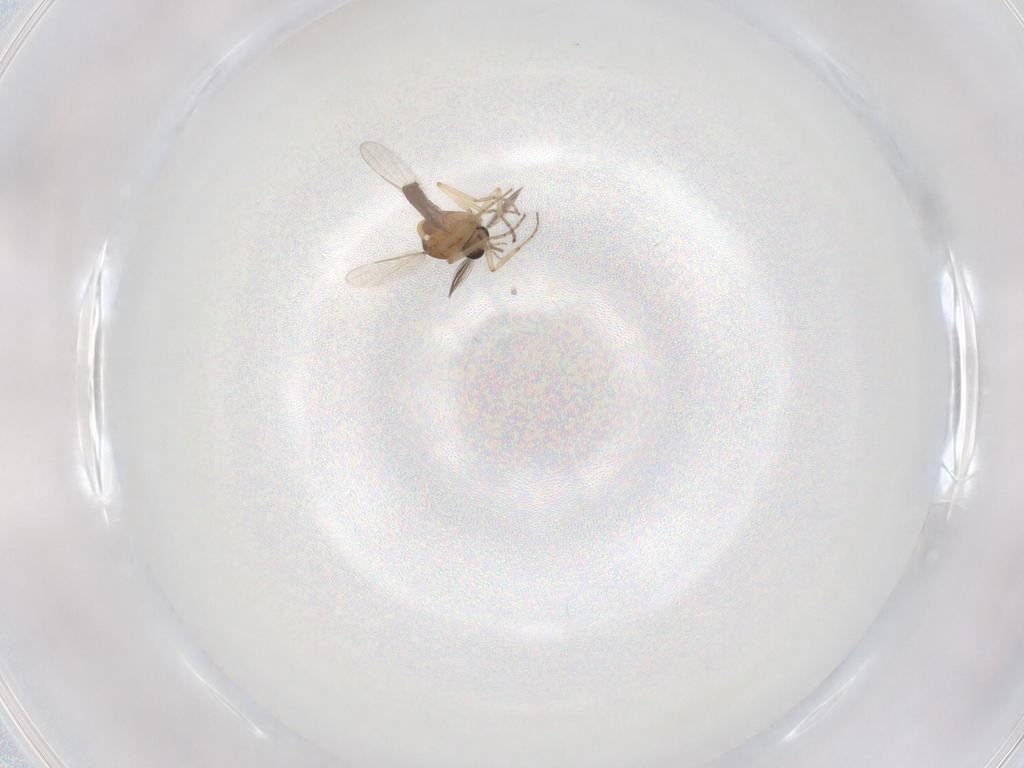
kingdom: Animalia
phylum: Arthropoda
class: Insecta
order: Diptera
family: Ceratopogonidae
